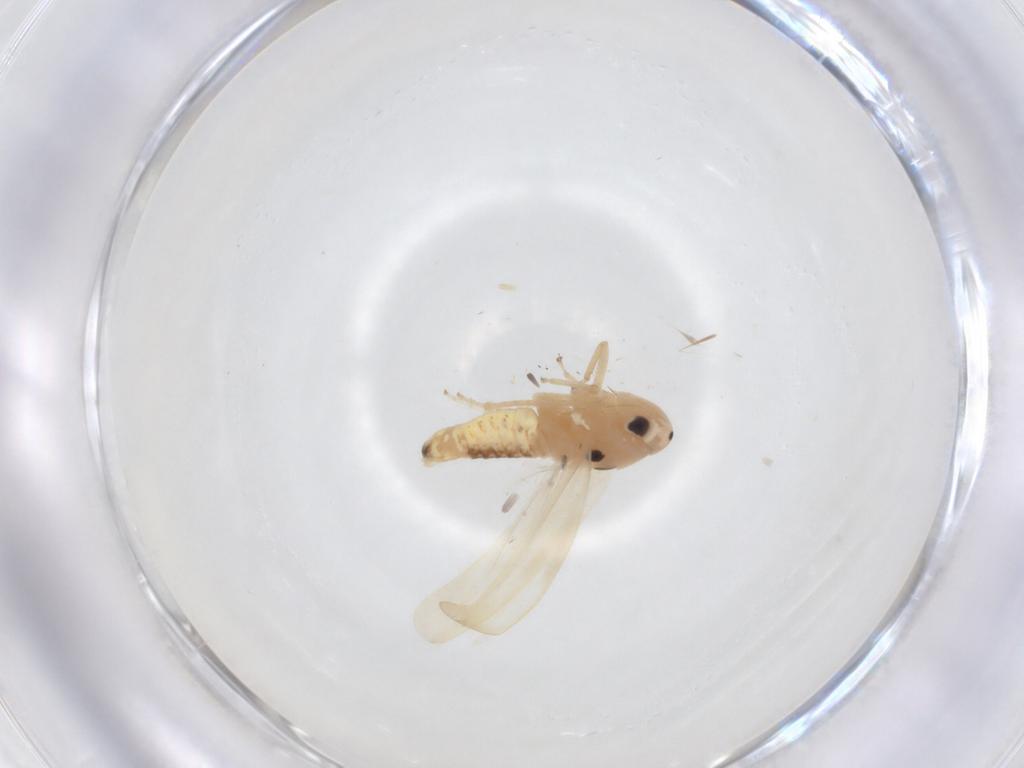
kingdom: Animalia
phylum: Arthropoda
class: Insecta
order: Hemiptera
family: Cicadellidae
